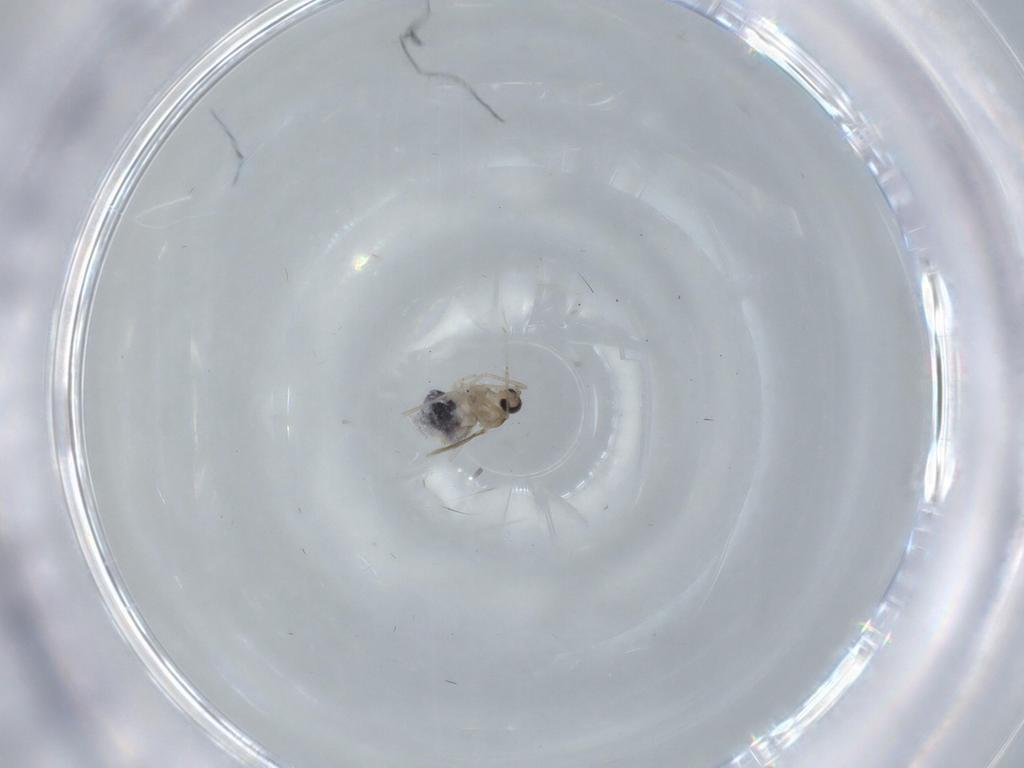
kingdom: Animalia
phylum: Arthropoda
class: Insecta
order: Diptera
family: Cecidomyiidae
